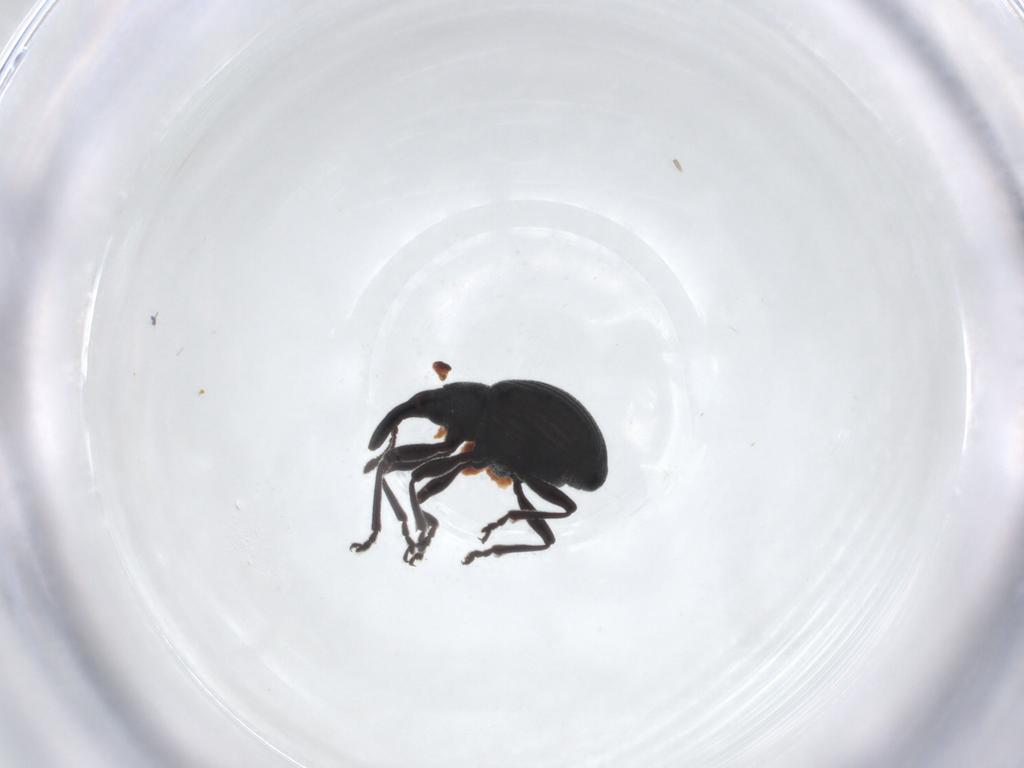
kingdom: Animalia
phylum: Arthropoda
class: Insecta
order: Coleoptera
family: Brentidae
